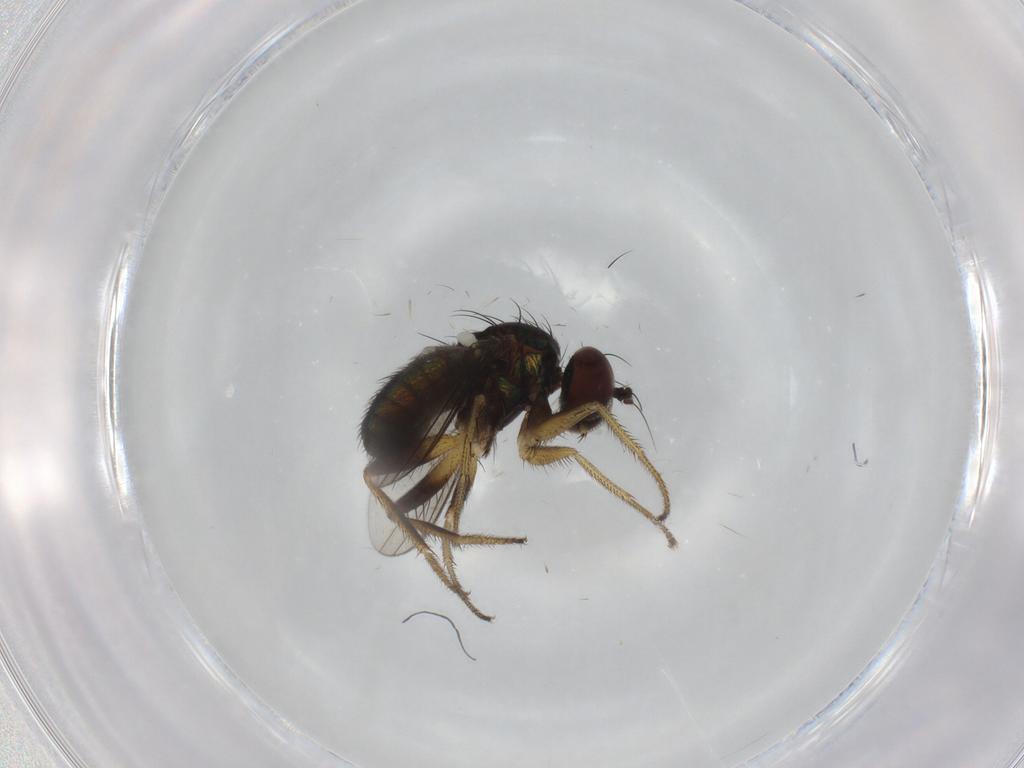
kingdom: Animalia
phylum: Arthropoda
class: Insecta
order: Diptera
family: Dolichopodidae
